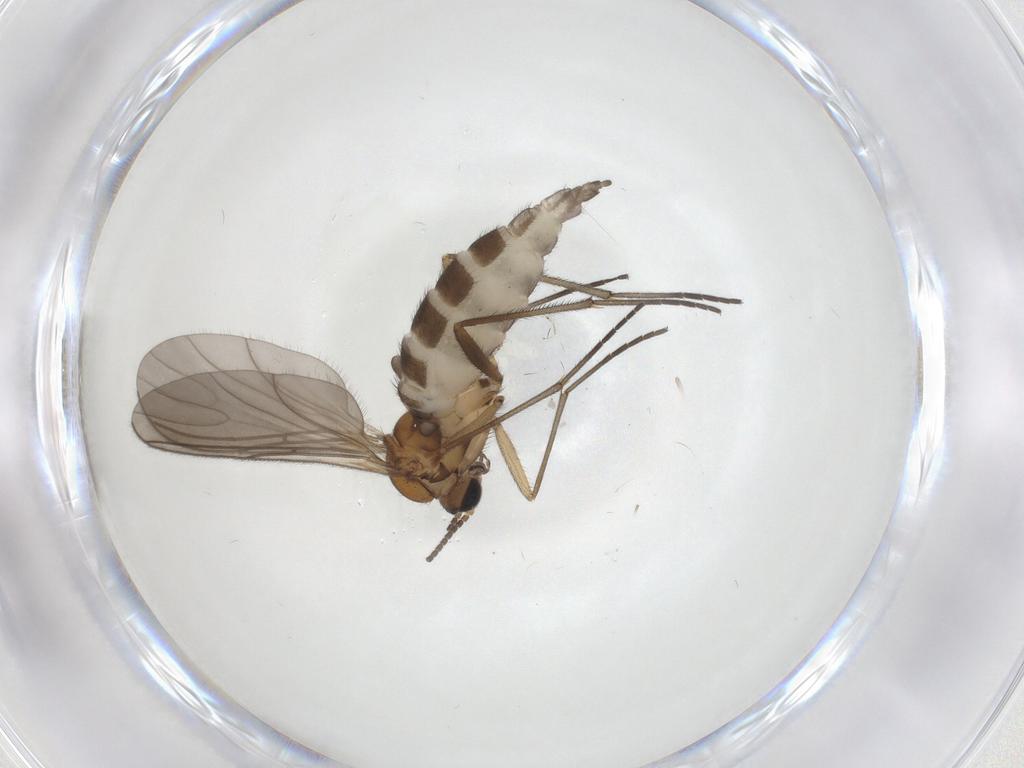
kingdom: Animalia
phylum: Arthropoda
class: Insecta
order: Diptera
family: Sciaridae
